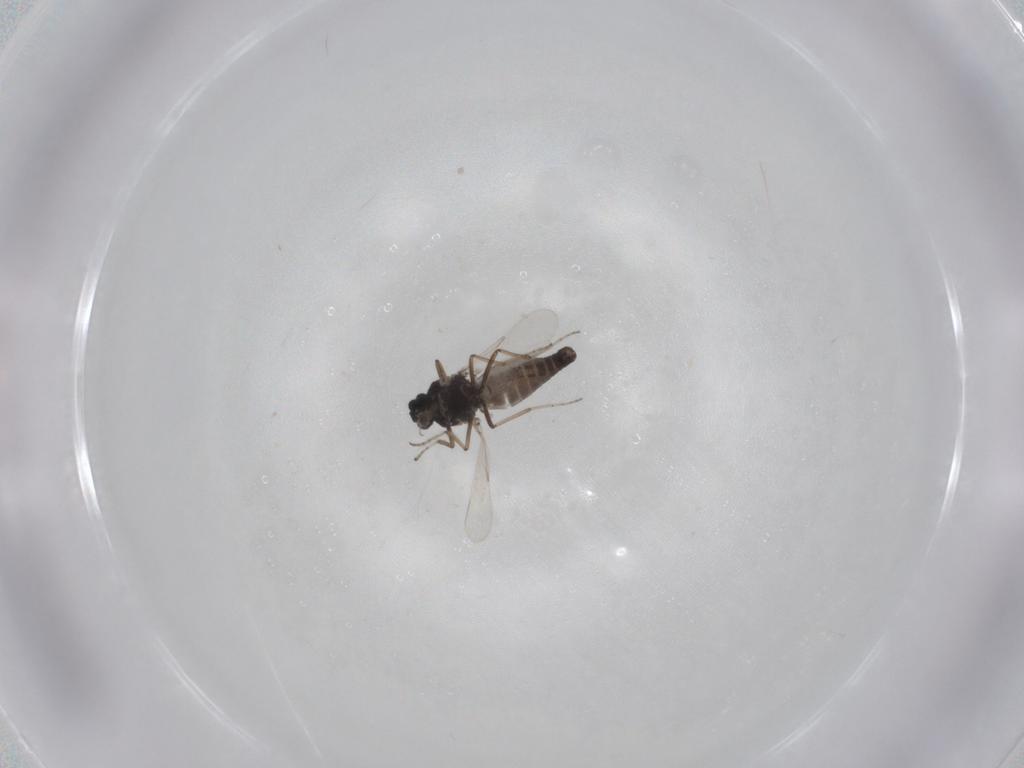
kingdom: Animalia
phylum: Arthropoda
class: Insecta
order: Diptera
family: Ceratopogonidae
